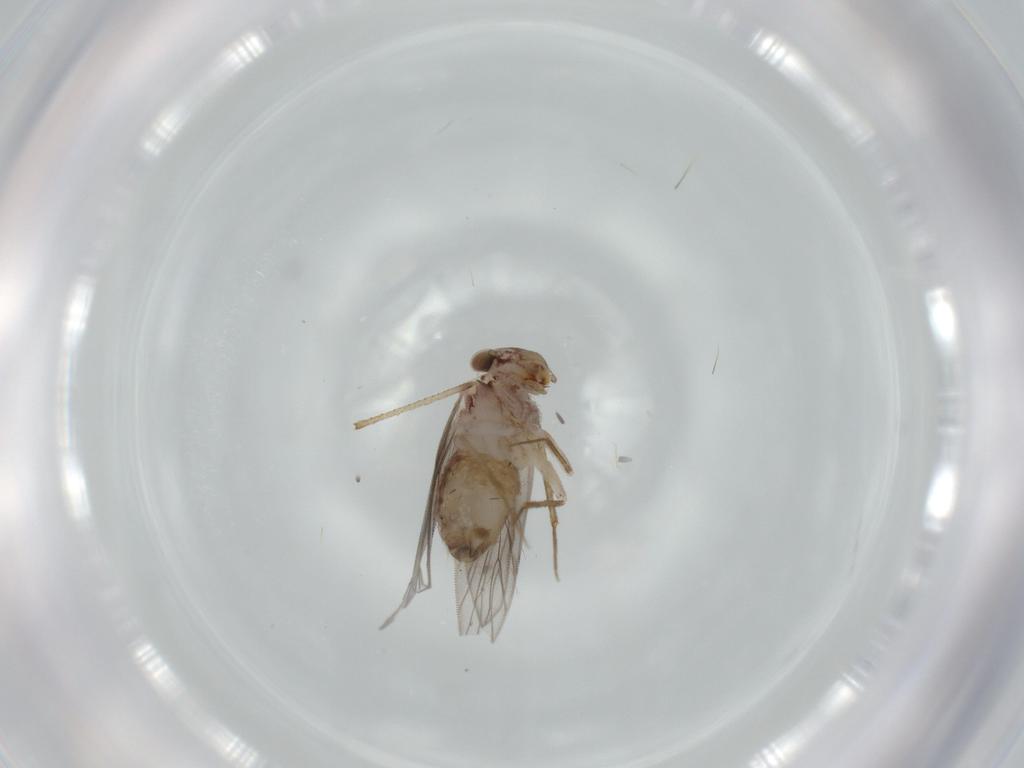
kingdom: Animalia
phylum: Arthropoda
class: Insecta
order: Psocodea
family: Lepidopsocidae
